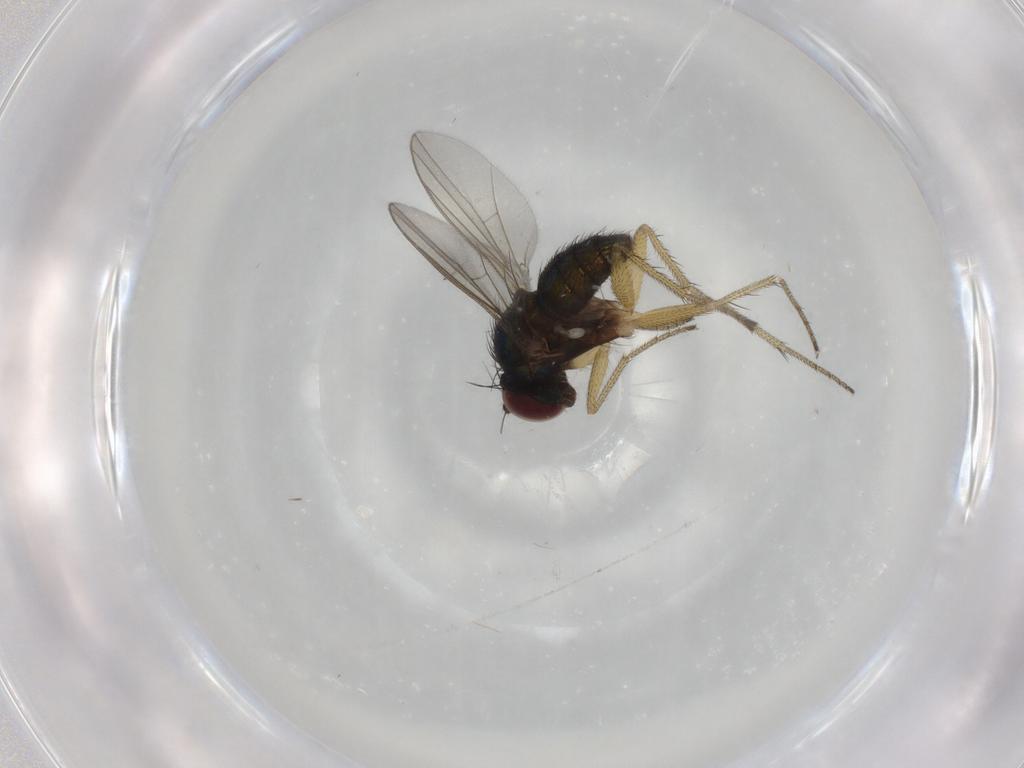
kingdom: Animalia
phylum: Arthropoda
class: Insecta
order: Diptera
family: Dolichopodidae
